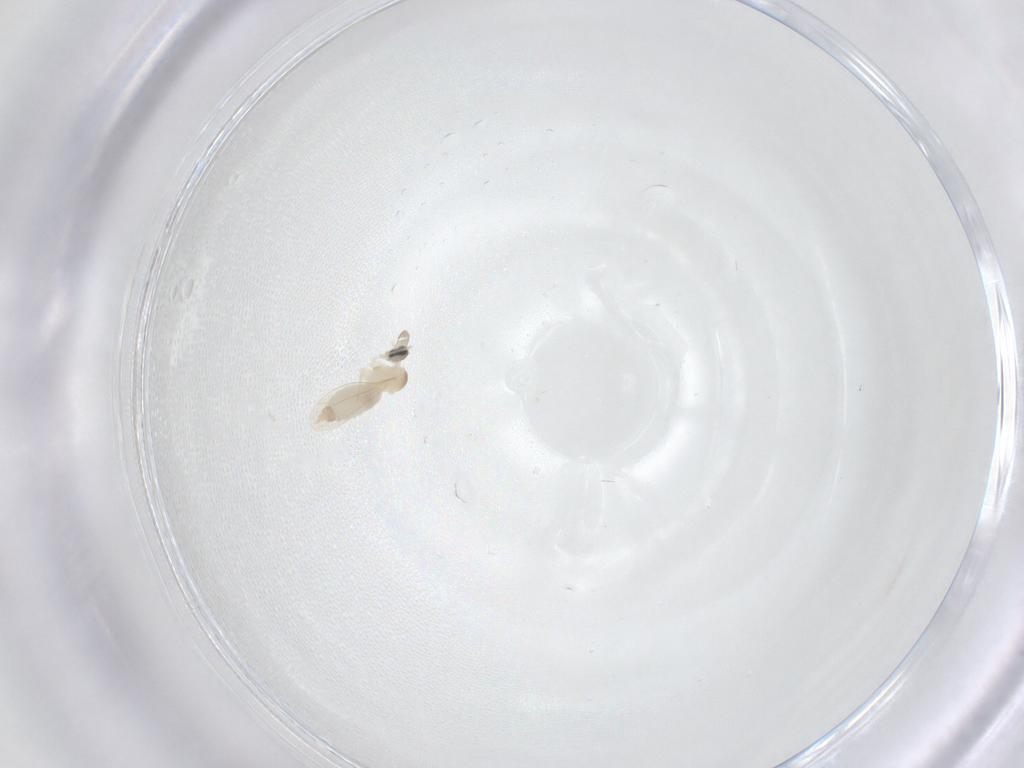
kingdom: Animalia
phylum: Arthropoda
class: Insecta
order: Diptera
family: Cecidomyiidae
